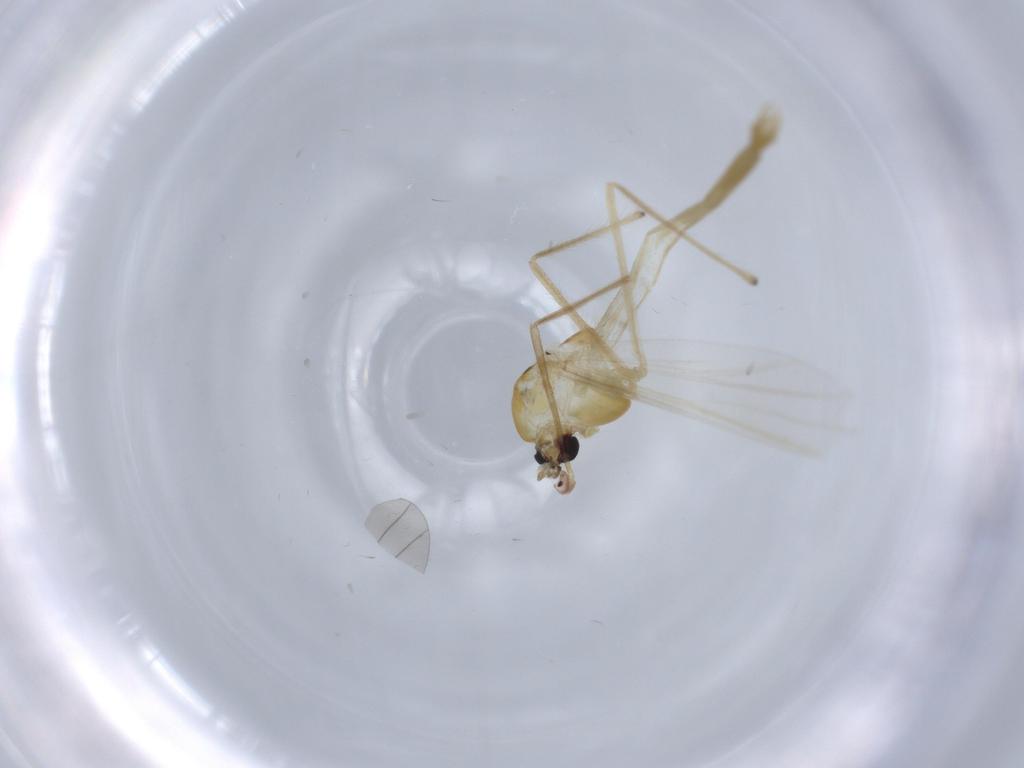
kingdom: Animalia
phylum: Arthropoda
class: Insecta
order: Diptera
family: Chironomidae
